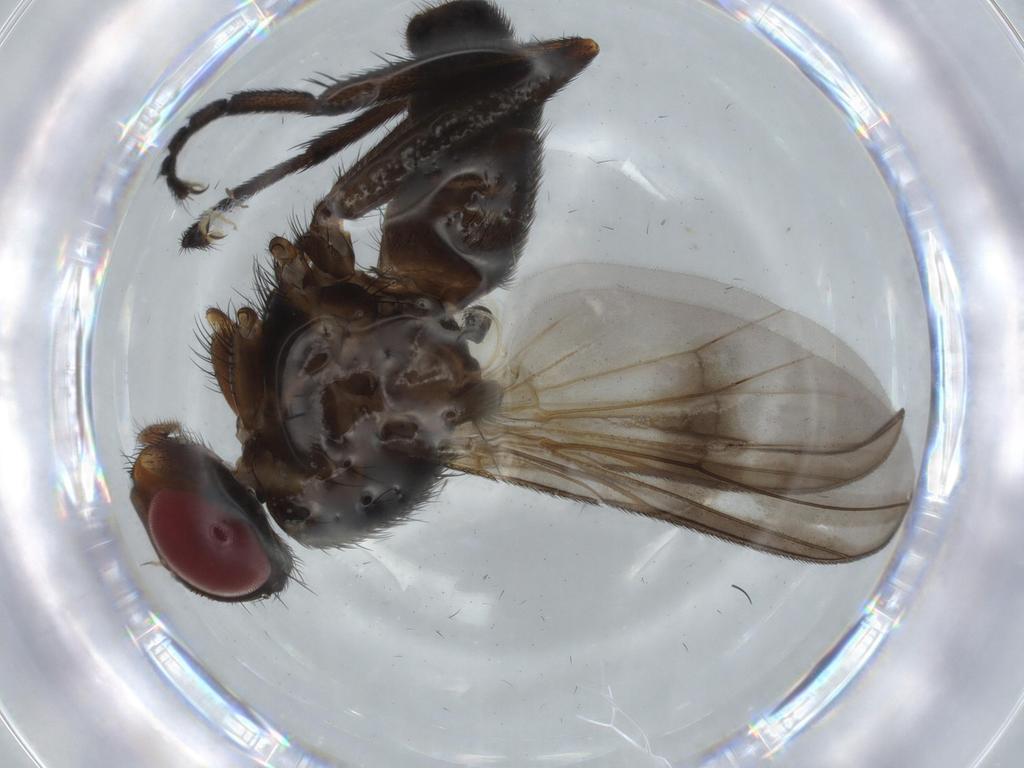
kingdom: Animalia
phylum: Arthropoda
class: Insecta
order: Diptera
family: Calliphoridae
